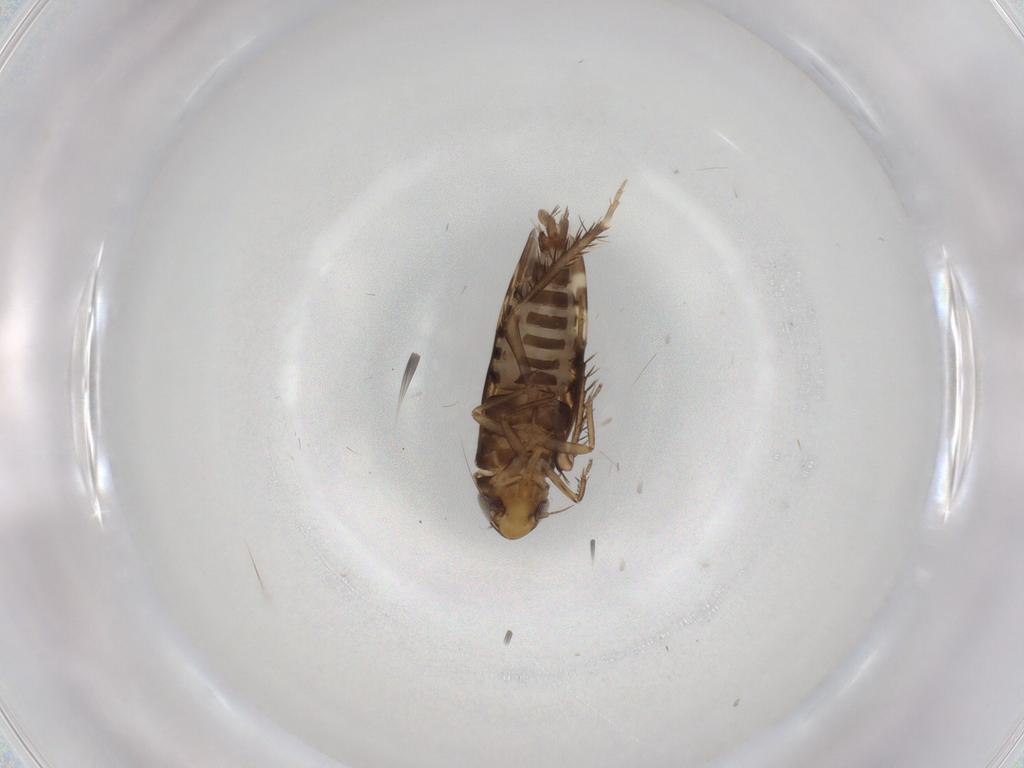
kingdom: Animalia
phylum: Arthropoda
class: Insecta
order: Hemiptera
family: Cicadellidae
